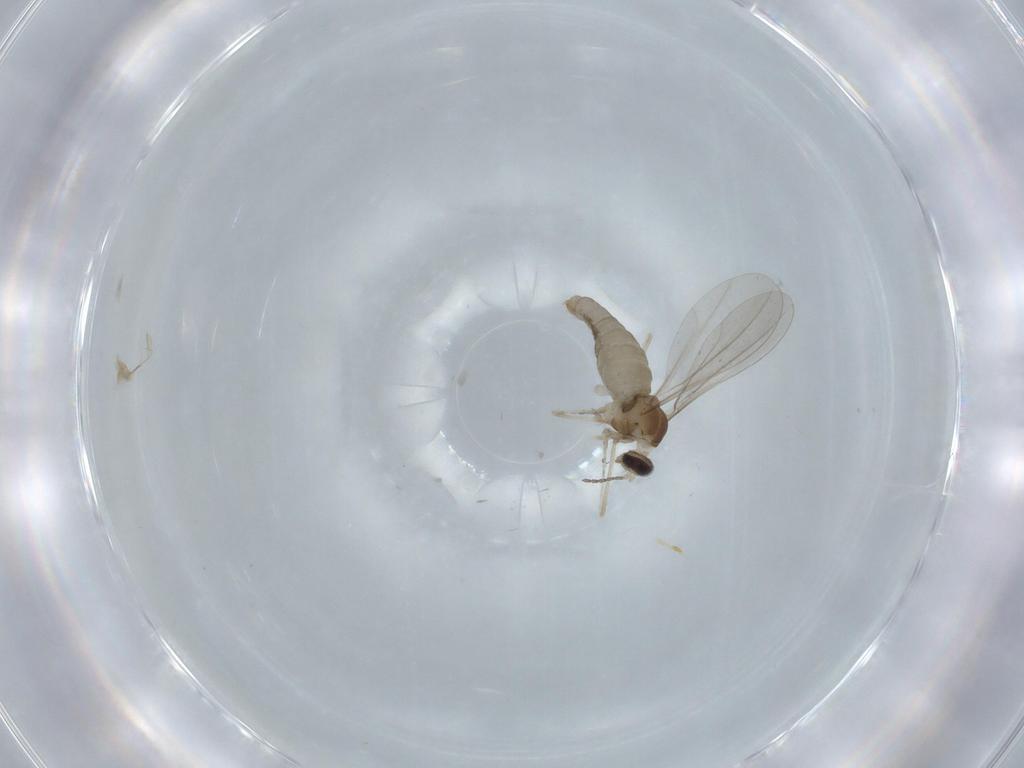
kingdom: Animalia
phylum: Arthropoda
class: Insecta
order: Diptera
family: Cecidomyiidae
